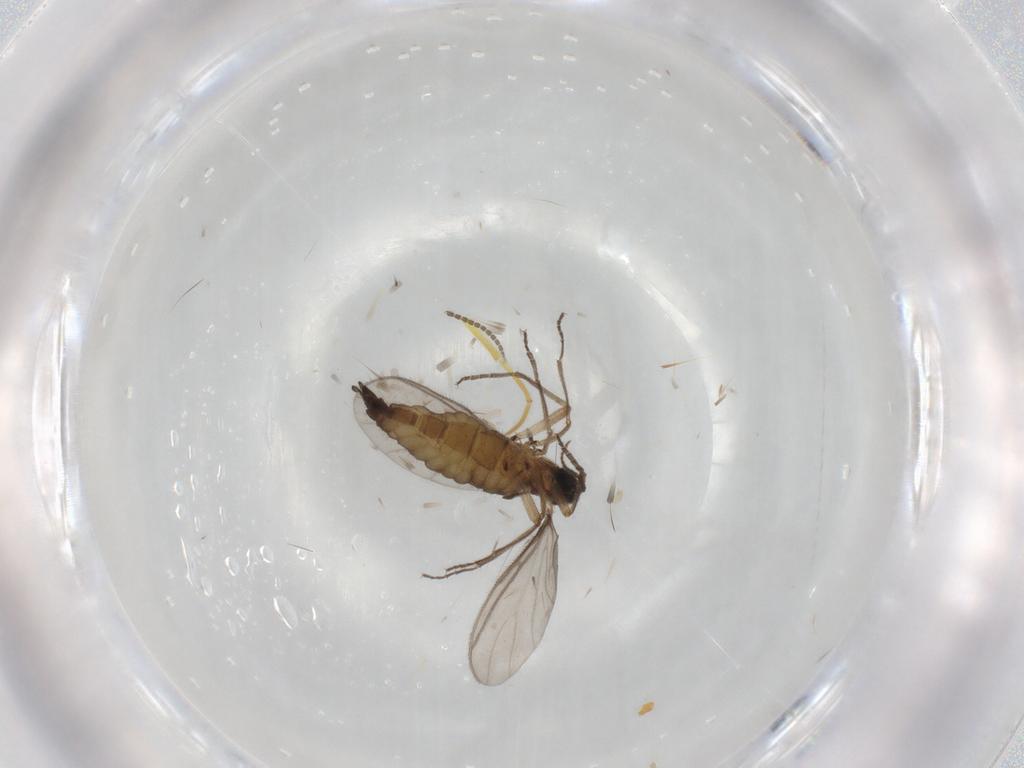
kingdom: Animalia
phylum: Arthropoda
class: Insecta
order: Diptera
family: Sciaridae
